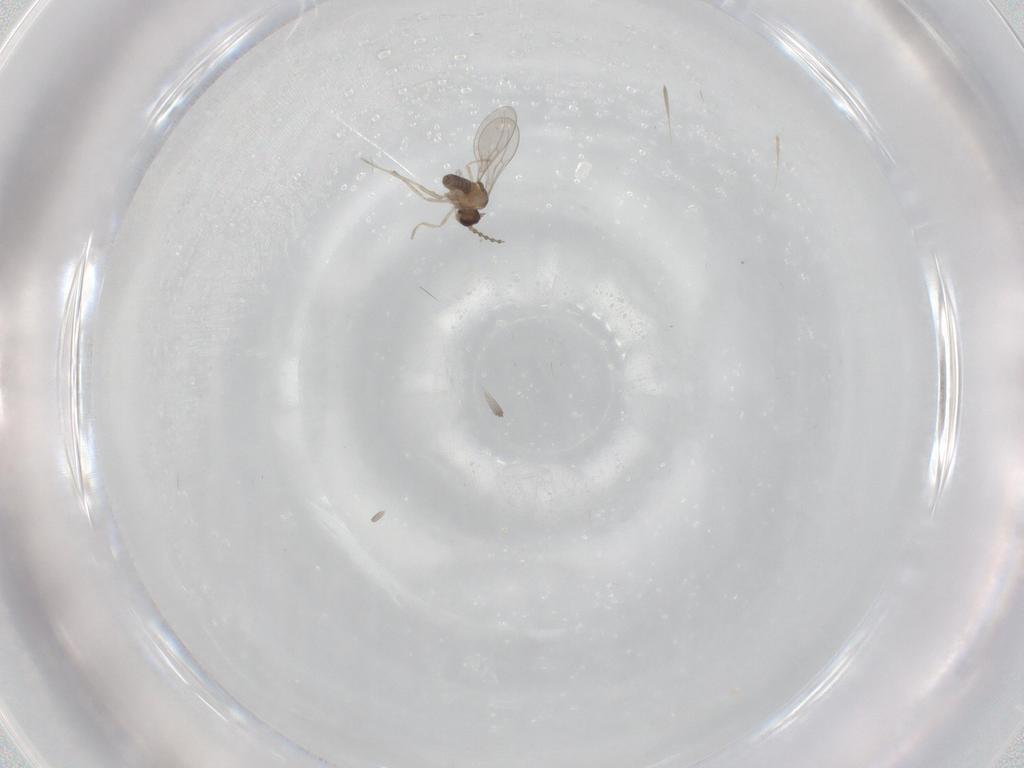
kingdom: Animalia
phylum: Arthropoda
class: Insecta
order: Diptera
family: Cecidomyiidae
